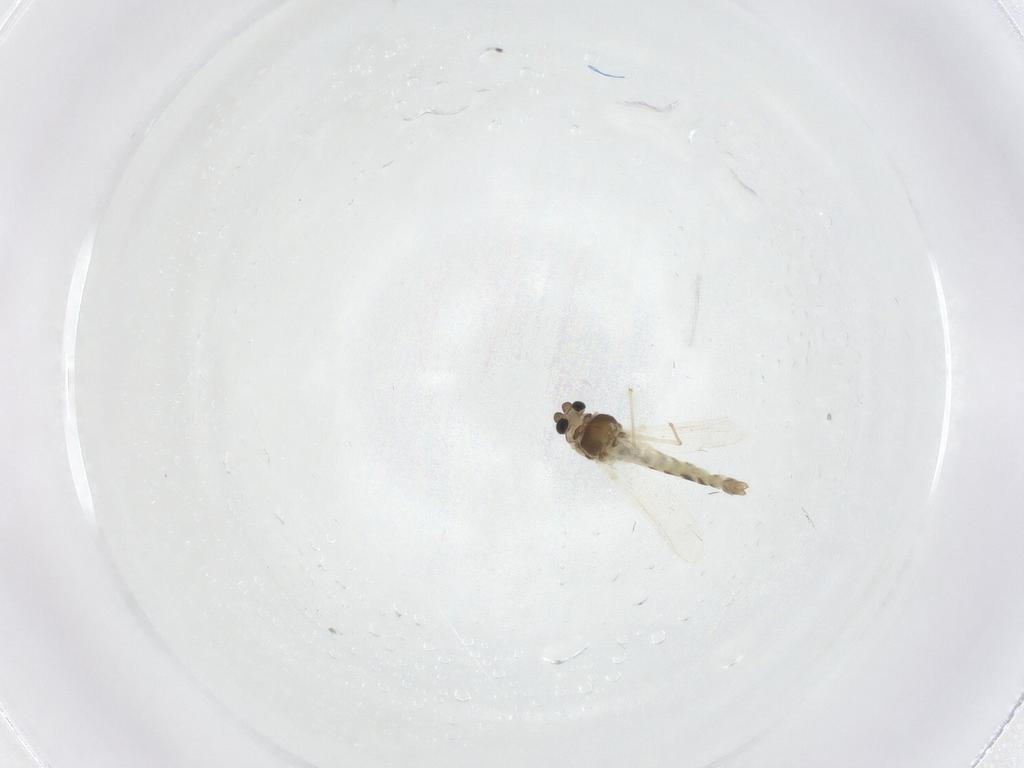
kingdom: Animalia
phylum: Arthropoda
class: Insecta
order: Diptera
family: Chironomidae
